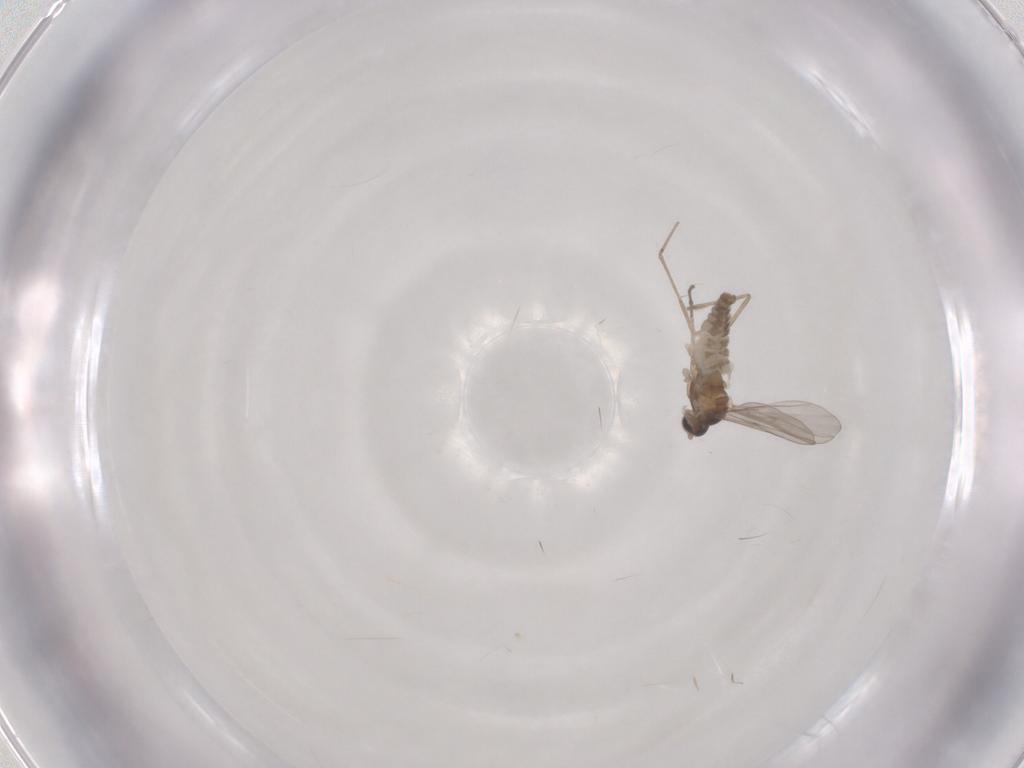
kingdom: Animalia
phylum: Arthropoda
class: Insecta
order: Diptera
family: Cecidomyiidae
